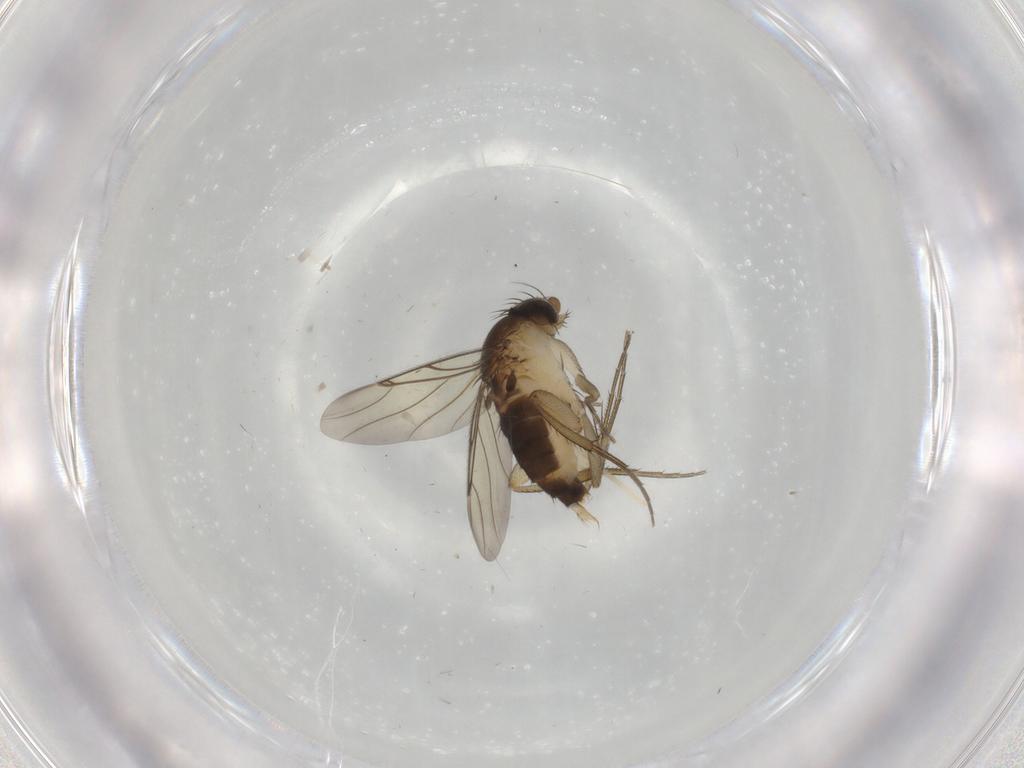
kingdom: Animalia
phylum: Arthropoda
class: Insecta
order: Diptera
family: Chironomidae
